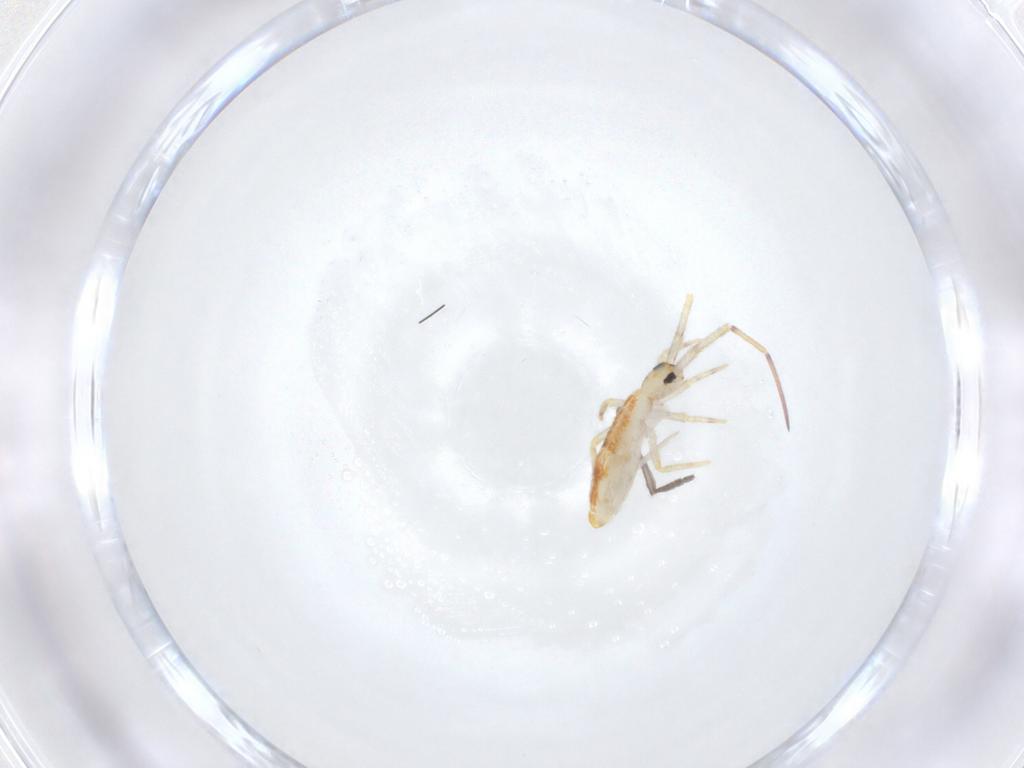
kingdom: Animalia
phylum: Arthropoda
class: Collembola
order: Entomobryomorpha
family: Entomobryidae
